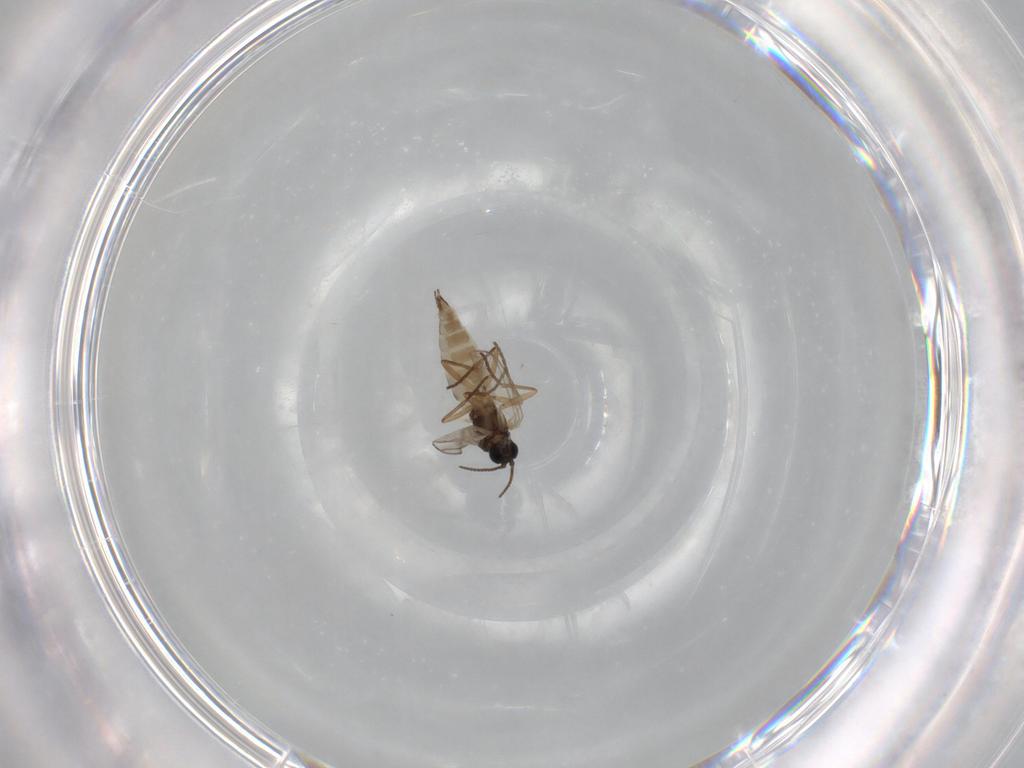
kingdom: Animalia
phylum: Arthropoda
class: Insecta
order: Diptera
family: Sciaridae
